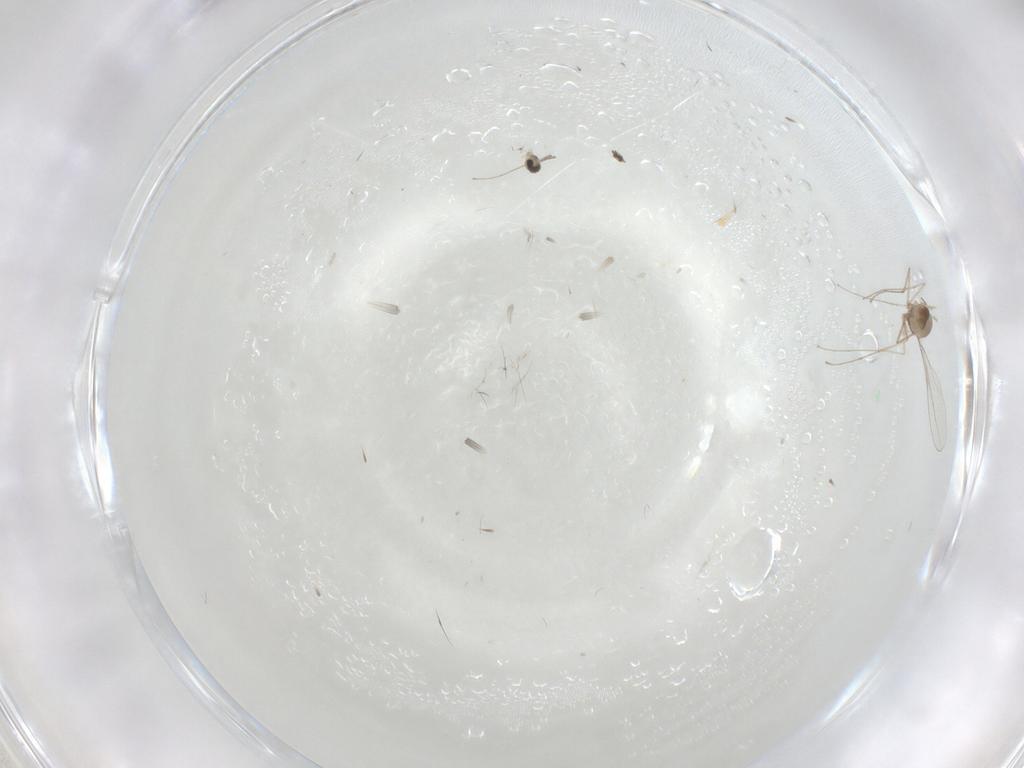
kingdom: Animalia
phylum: Arthropoda
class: Insecta
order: Diptera
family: Cecidomyiidae
